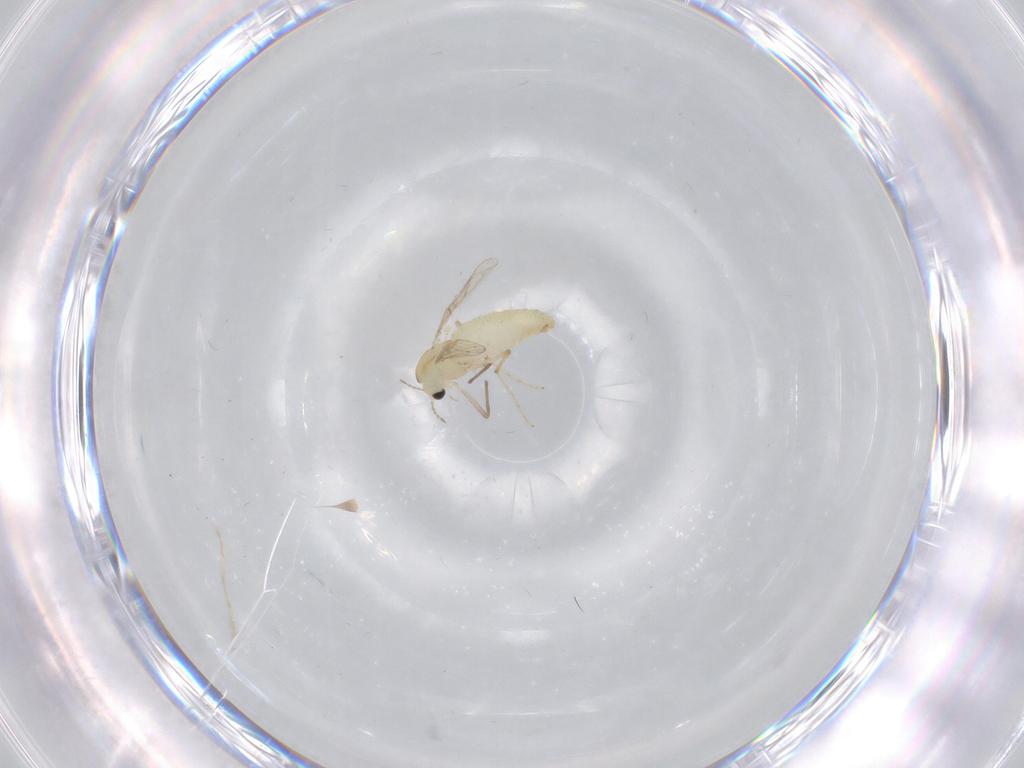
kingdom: Animalia
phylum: Arthropoda
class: Insecta
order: Diptera
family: Chironomidae
